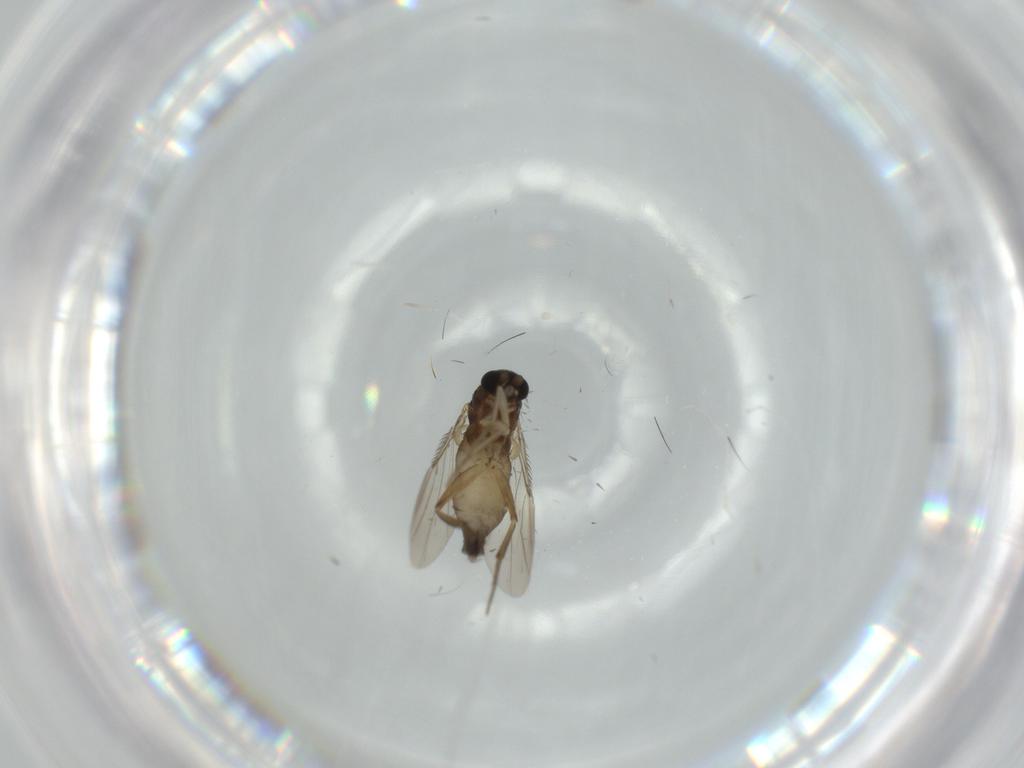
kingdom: Animalia
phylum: Arthropoda
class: Insecta
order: Diptera
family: Phoridae
